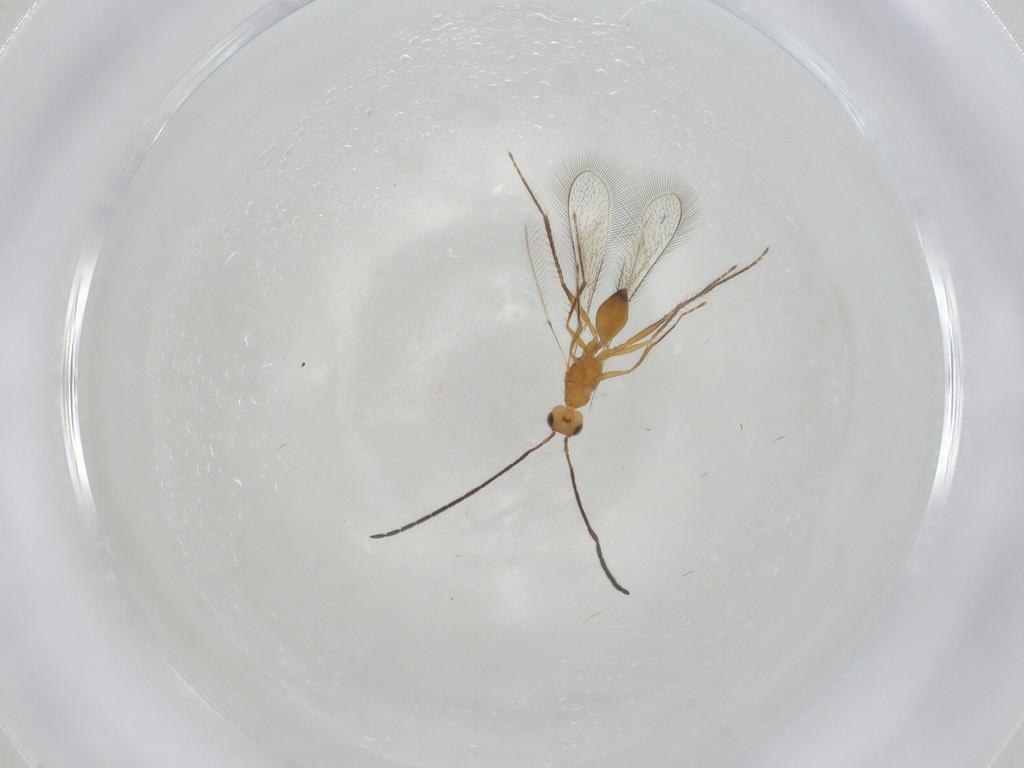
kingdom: Animalia
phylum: Arthropoda
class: Insecta
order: Hymenoptera
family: Mymaridae
